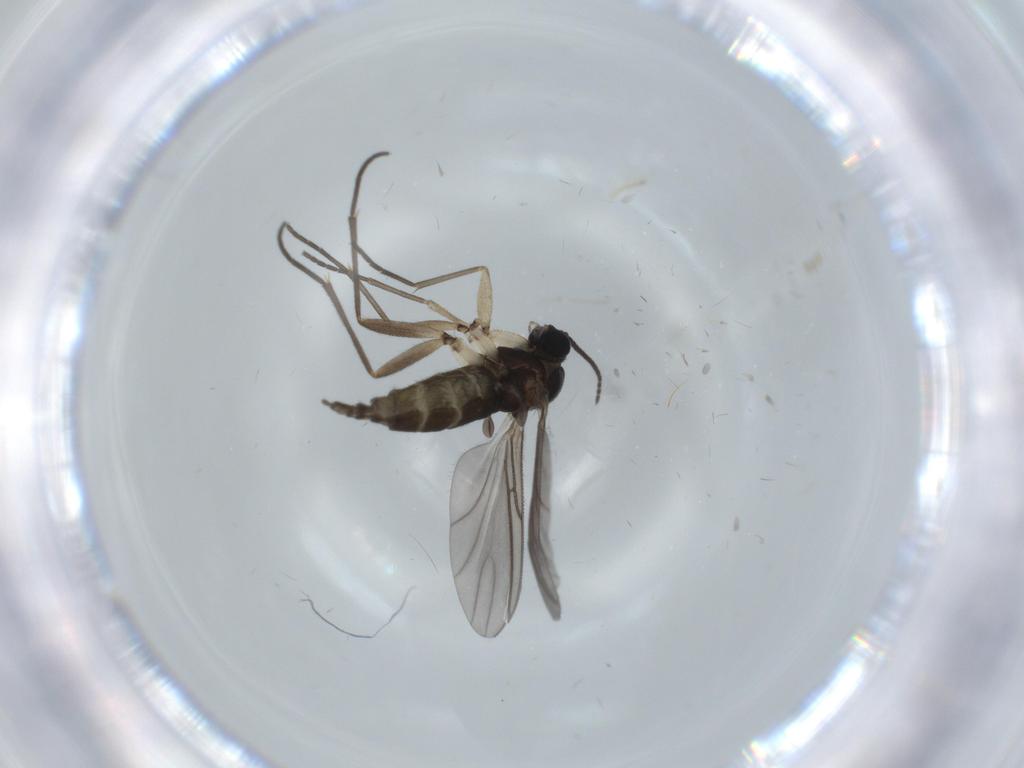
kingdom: Animalia
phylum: Arthropoda
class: Insecta
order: Diptera
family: Sciaridae
